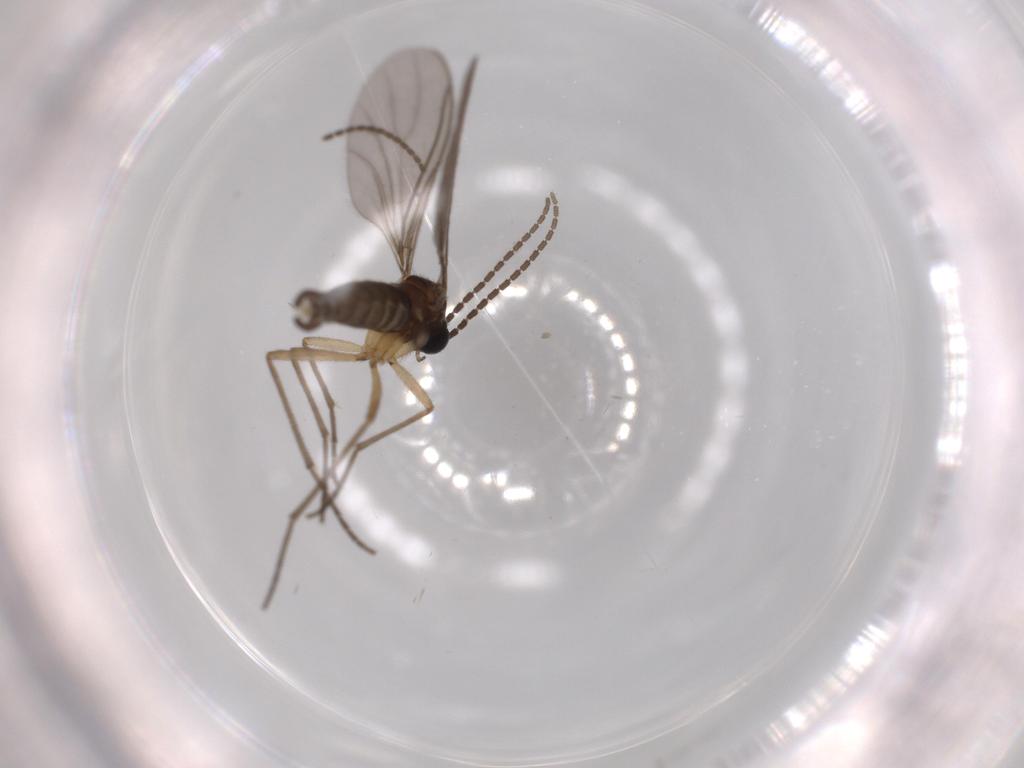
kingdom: Animalia
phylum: Arthropoda
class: Insecta
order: Diptera
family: Sciaridae
